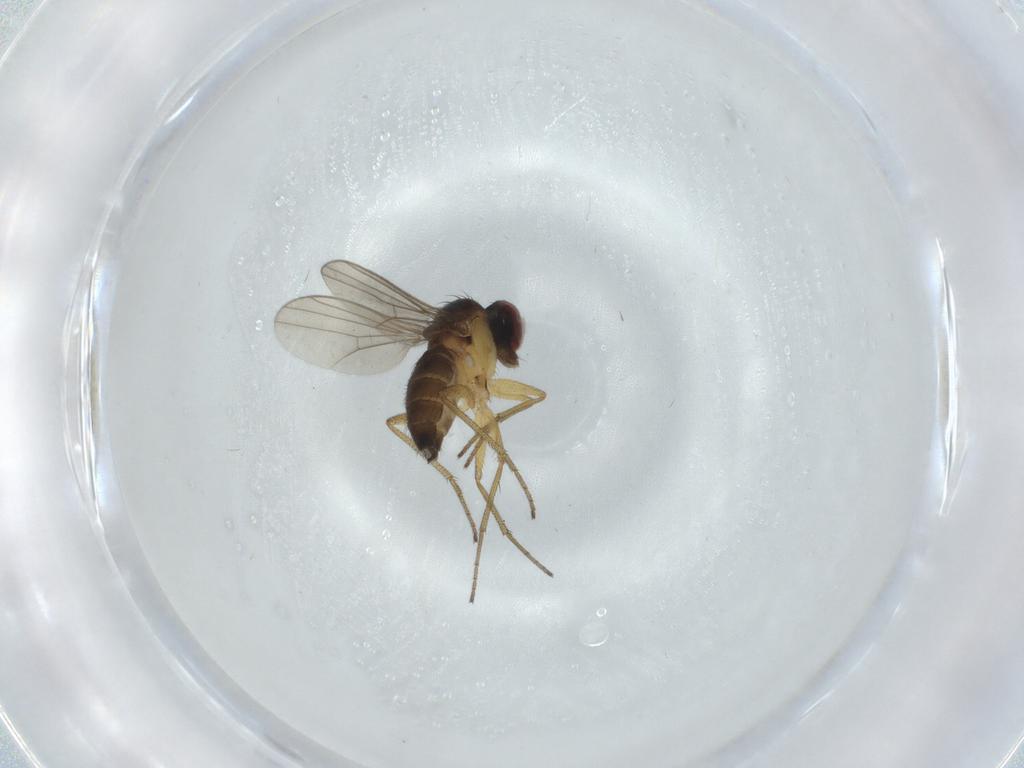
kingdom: Animalia
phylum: Arthropoda
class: Insecta
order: Diptera
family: Dolichopodidae
